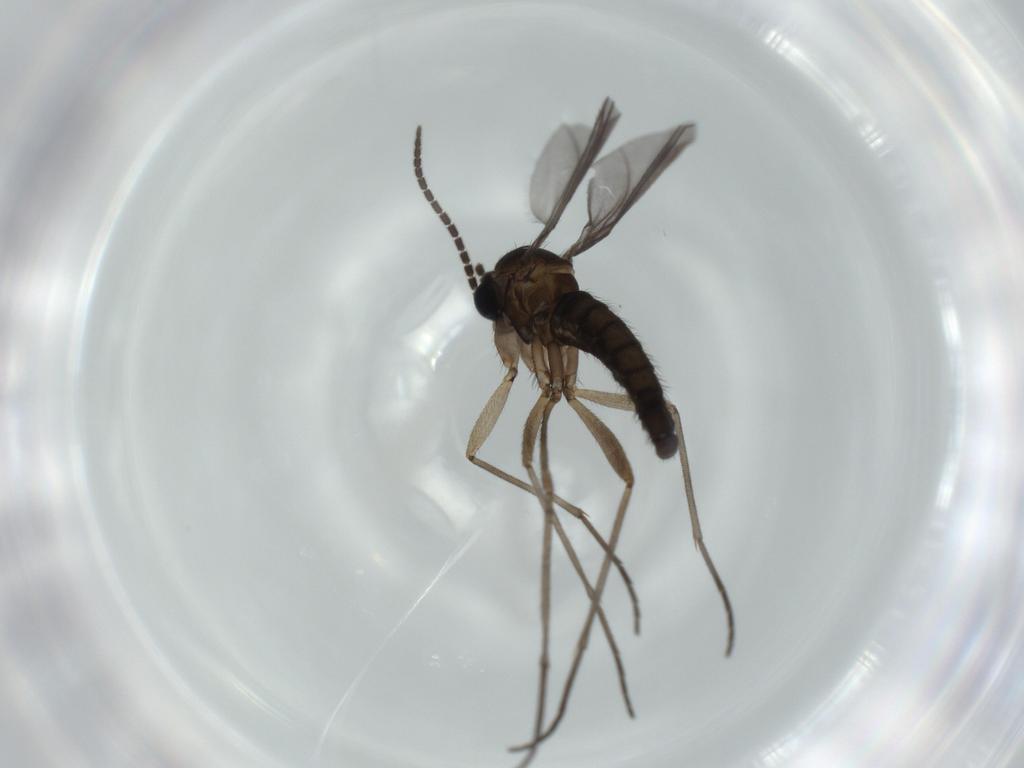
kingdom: Animalia
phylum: Arthropoda
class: Insecta
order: Diptera
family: Sciaridae
